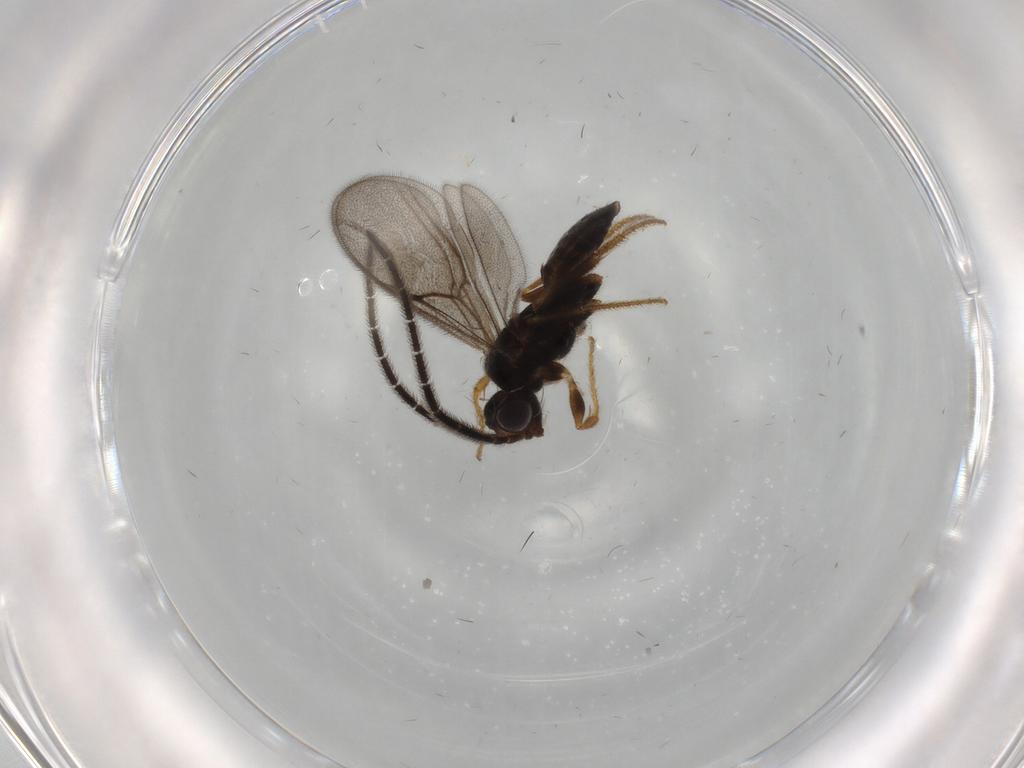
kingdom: Animalia
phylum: Arthropoda
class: Insecta
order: Hymenoptera
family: Dryinidae
